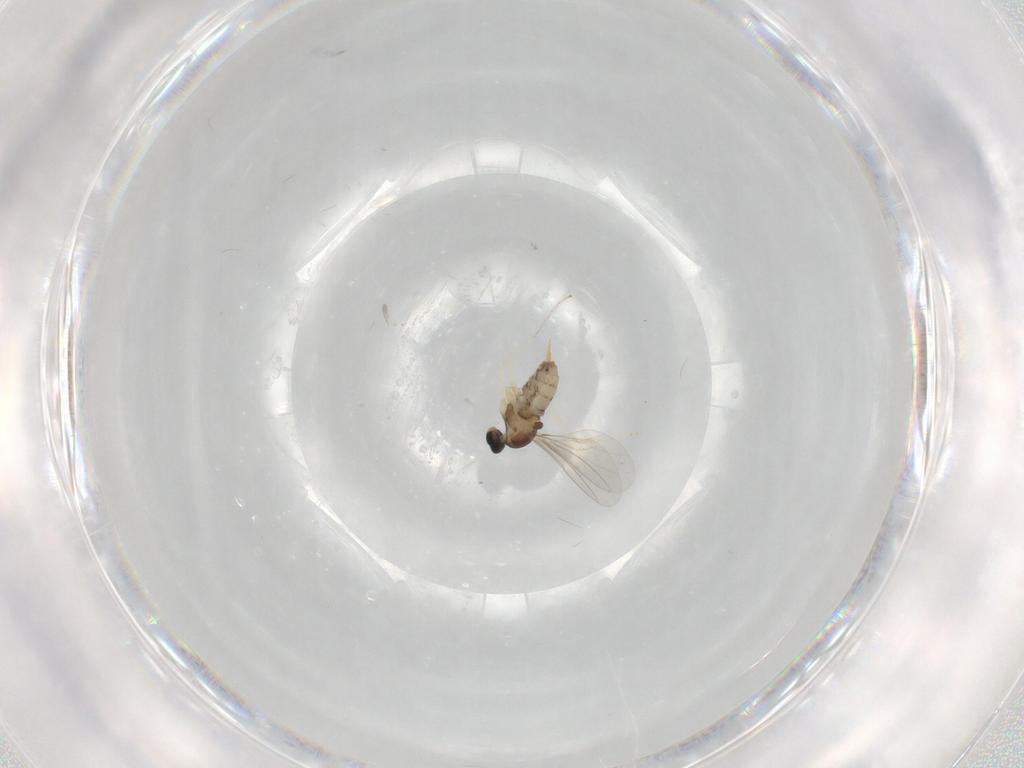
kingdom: Animalia
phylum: Arthropoda
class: Insecta
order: Diptera
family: Cecidomyiidae
